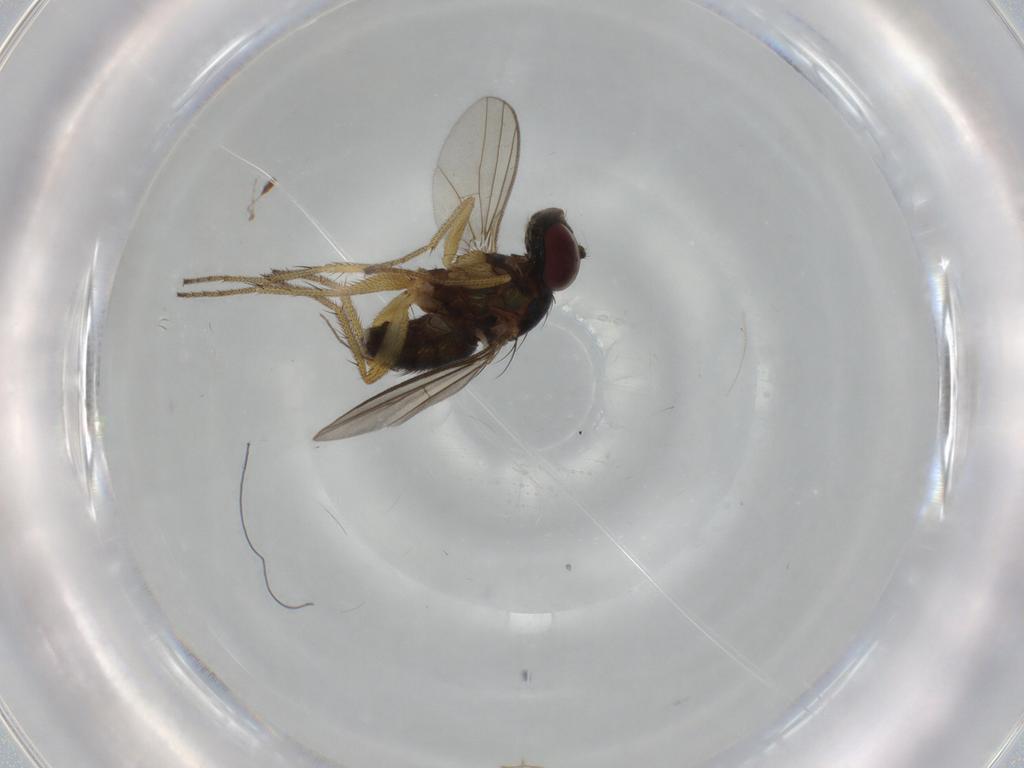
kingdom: Animalia
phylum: Arthropoda
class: Insecta
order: Diptera
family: Dolichopodidae
